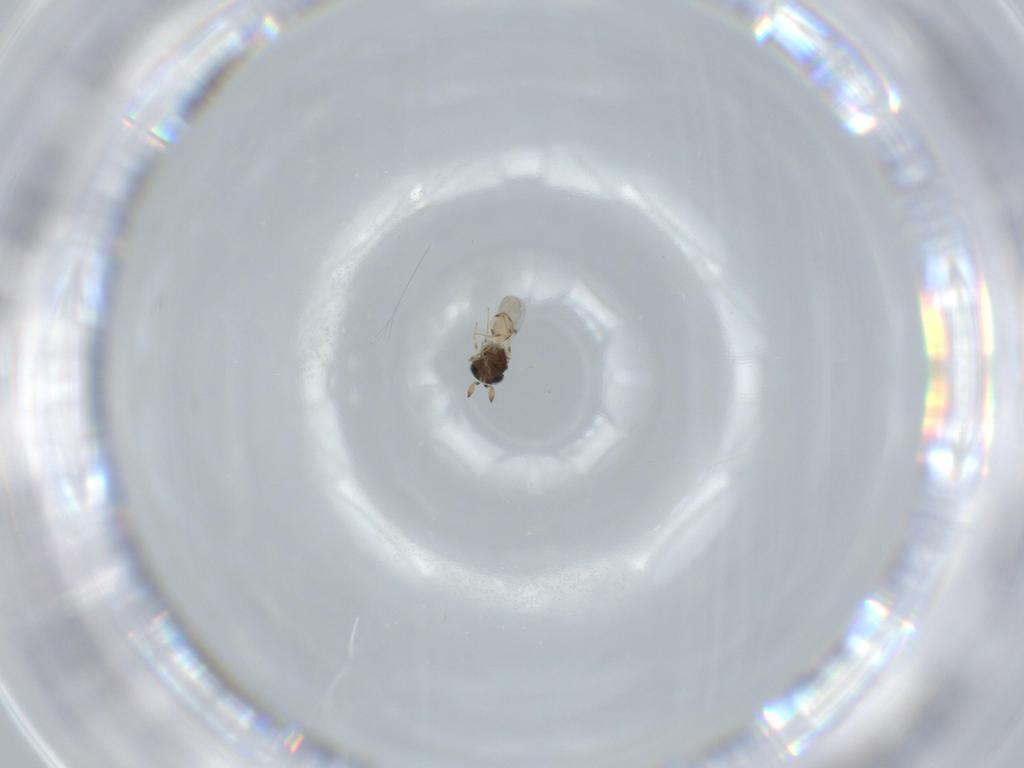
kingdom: Animalia
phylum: Arthropoda
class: Insecta
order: Hymenoptera
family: Scelionidae
